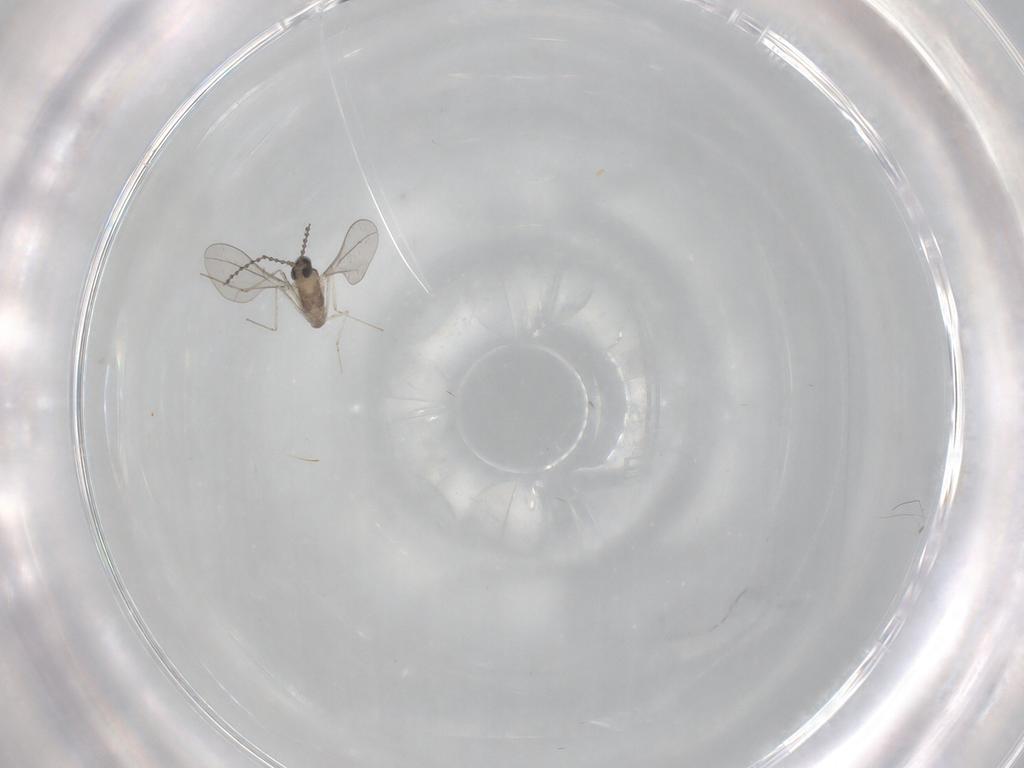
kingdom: Animalia
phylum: Arthropoda
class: Insecta
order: Diptera
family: Cecidomyiidae
